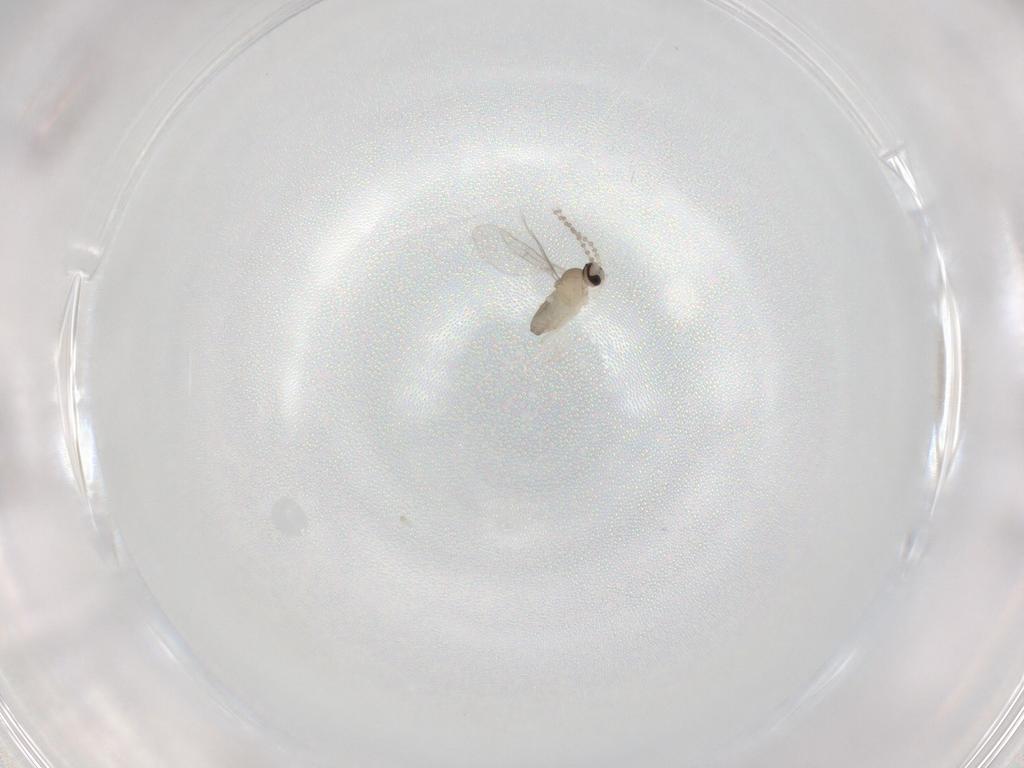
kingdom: Animalia
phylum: Arthropoda
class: Insecta
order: Diptera
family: Cecidomyiidae
